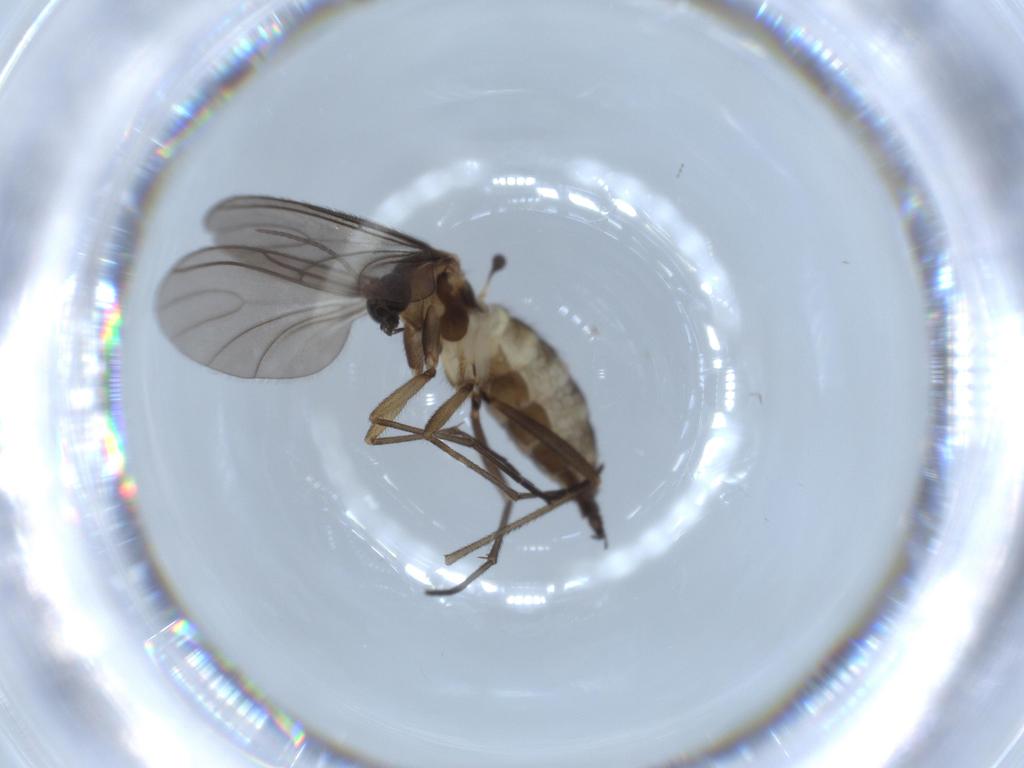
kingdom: Animalia
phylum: Arthropoda
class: Insecta
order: Diptera
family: Sciaridae
